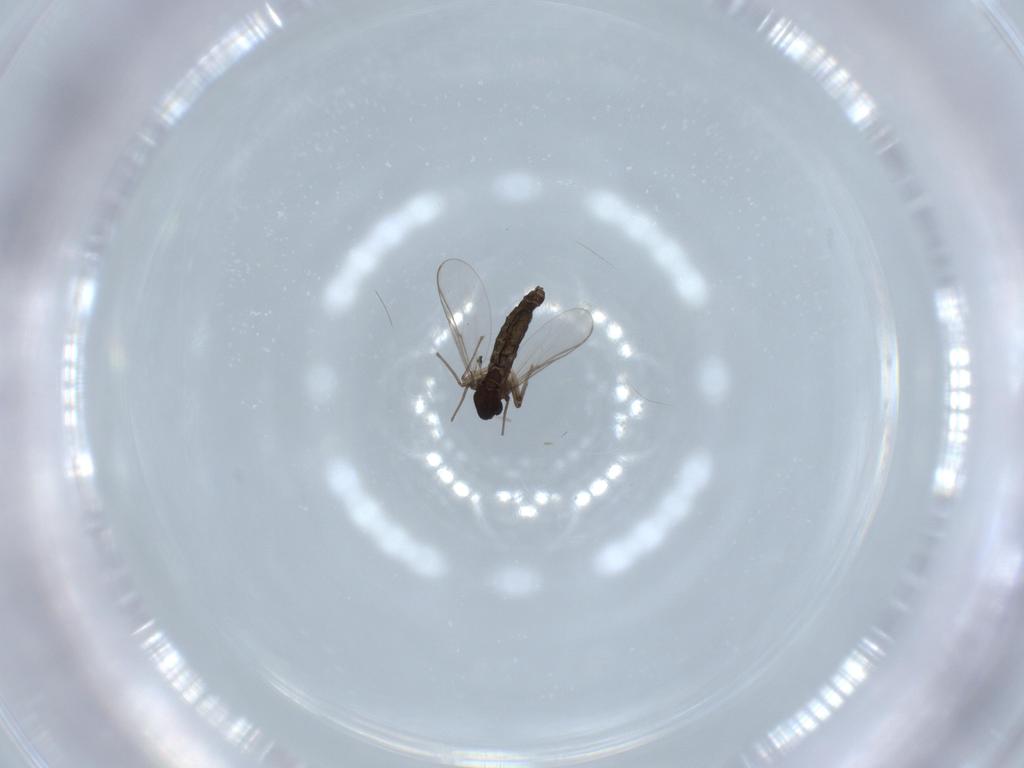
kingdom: Animalia
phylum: Arthropoda
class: Insecta
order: Diptera
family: Chironomidae
